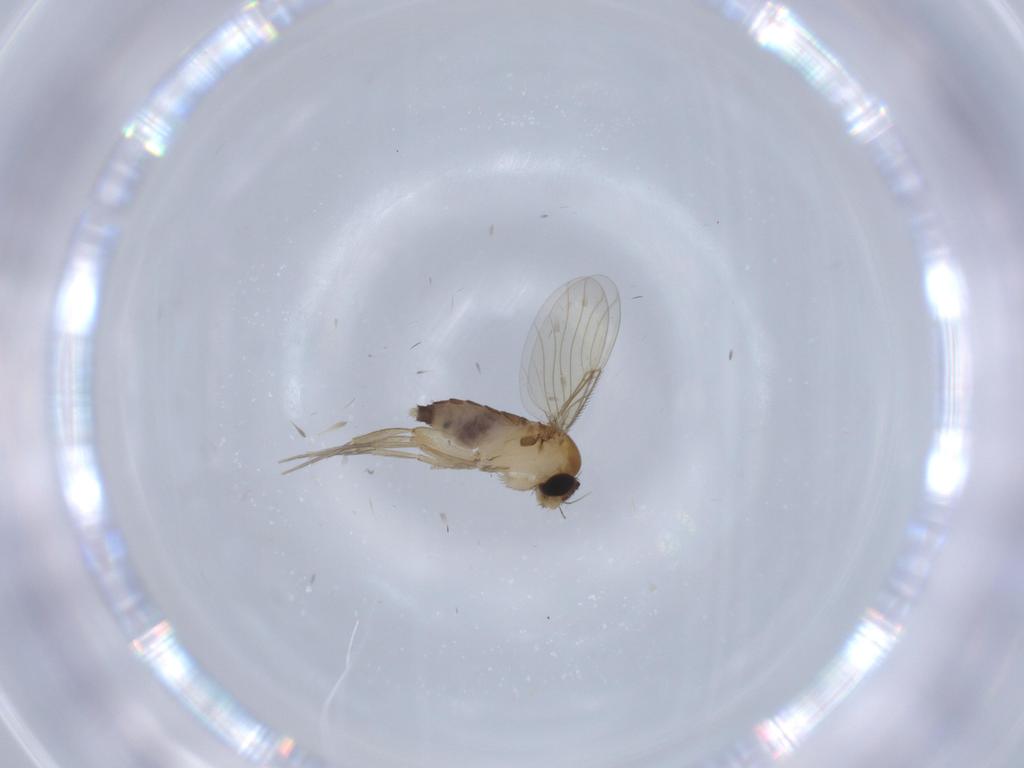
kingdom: Animalia
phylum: Arthropoda
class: Insecta
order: Diptera
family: Phoridae
